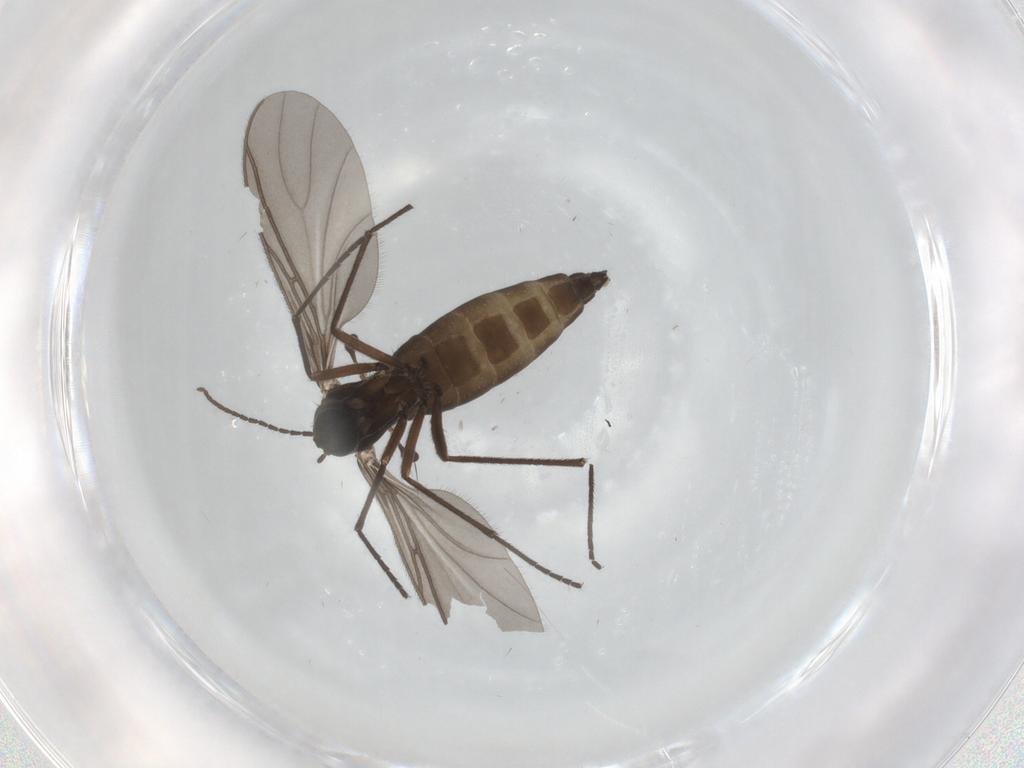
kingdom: Animalia
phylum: Arthropoda
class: Insecta
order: Diptera
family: Sciaridae
